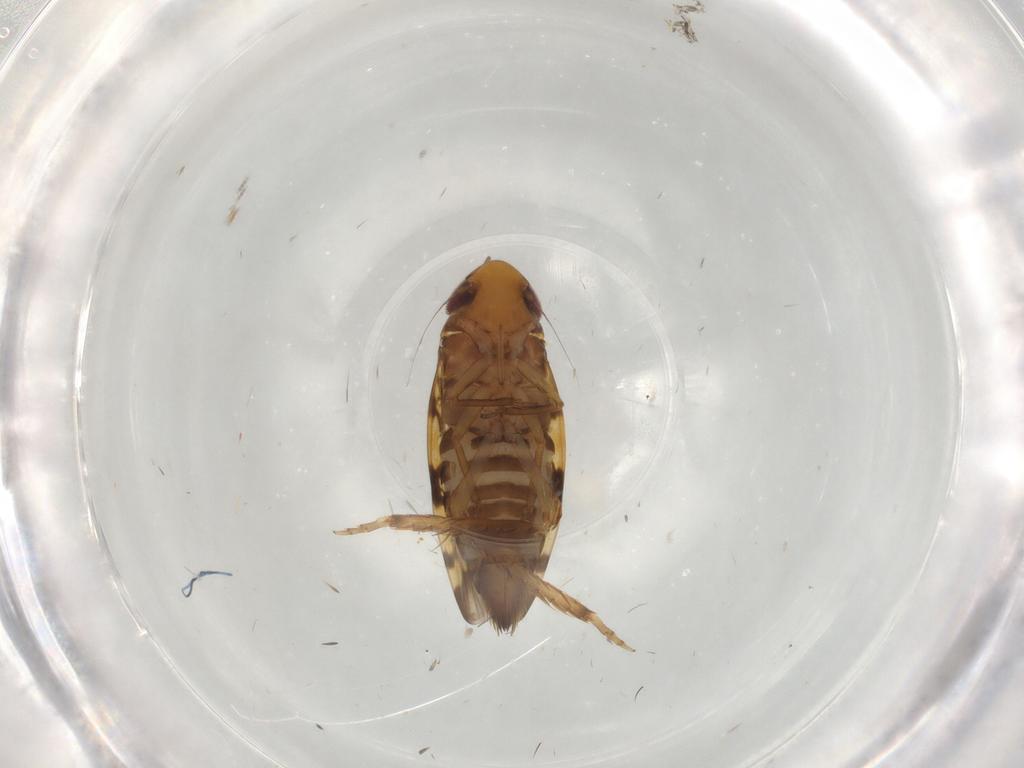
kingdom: Animalia
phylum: Arthropoda
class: Insecta
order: Hemiptera
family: Cicadellidae
